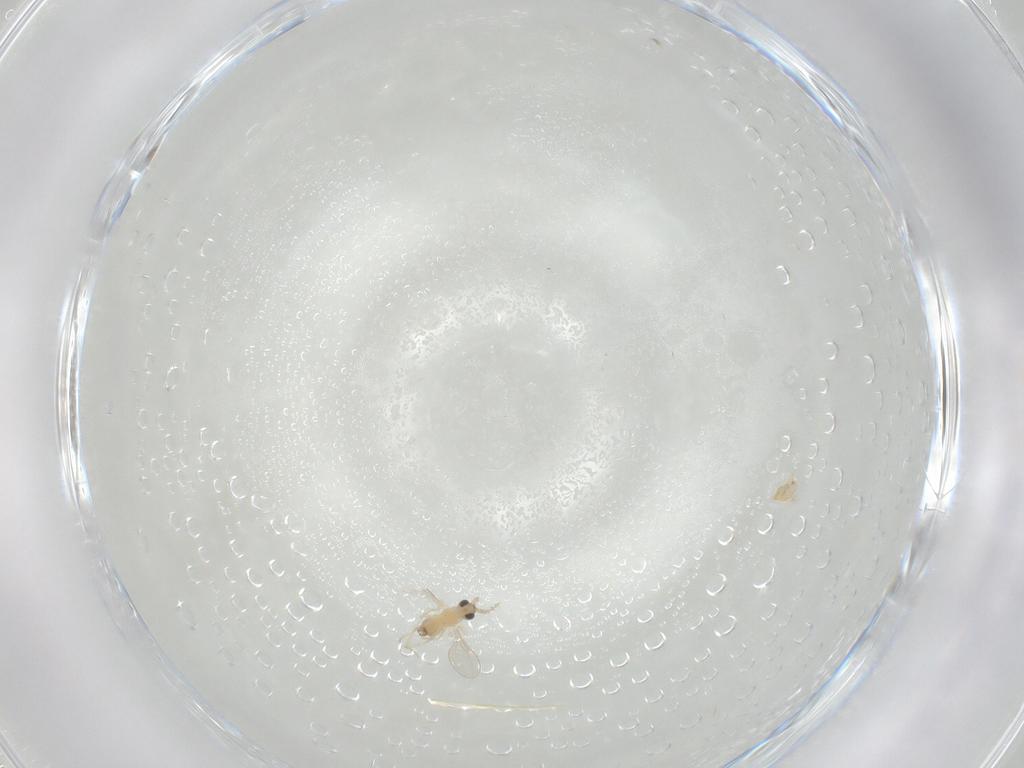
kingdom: Animalia
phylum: Arthropoda
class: Insecta
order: Diptera
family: Cecidomyiidae
